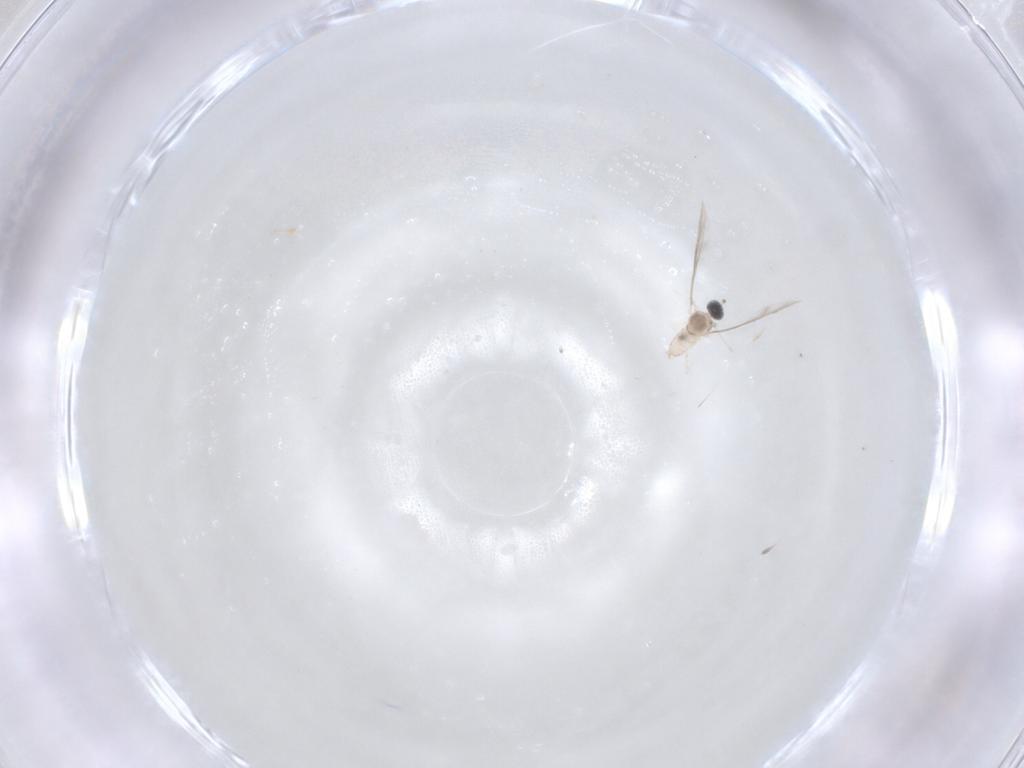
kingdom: Animalia
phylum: Arthropoda
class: Insecta
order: Diptera
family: Cecidomyiidae
